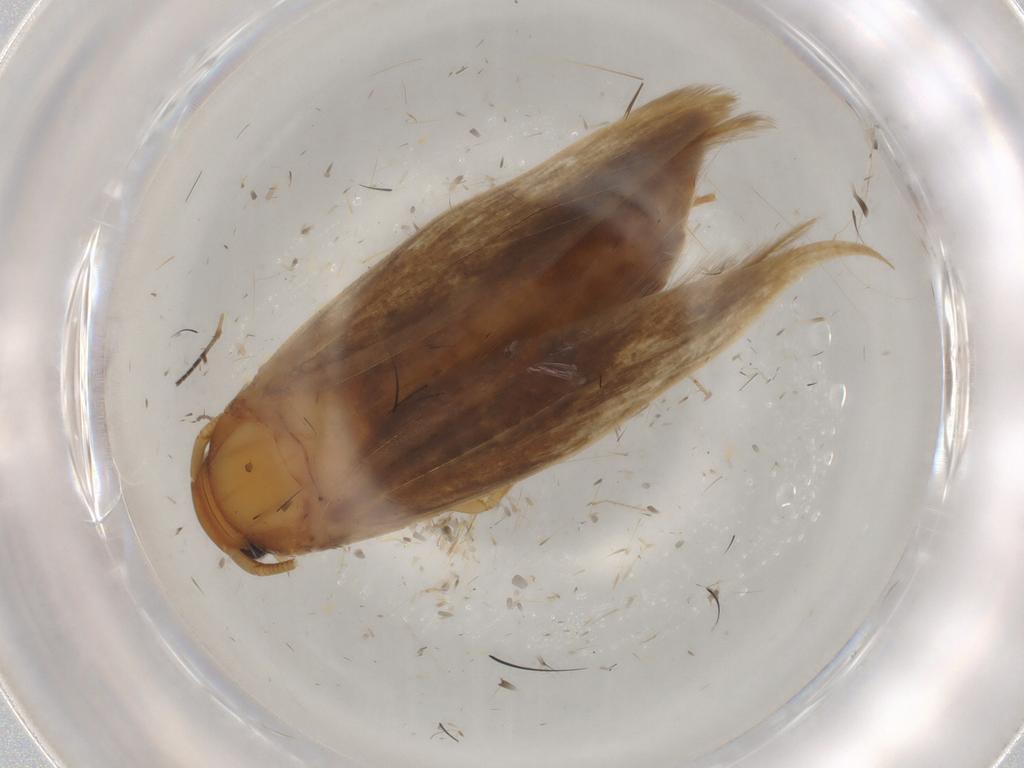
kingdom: Animalia
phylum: Arthropoda
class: Insecta
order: Lepidoptera
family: Tineidae
